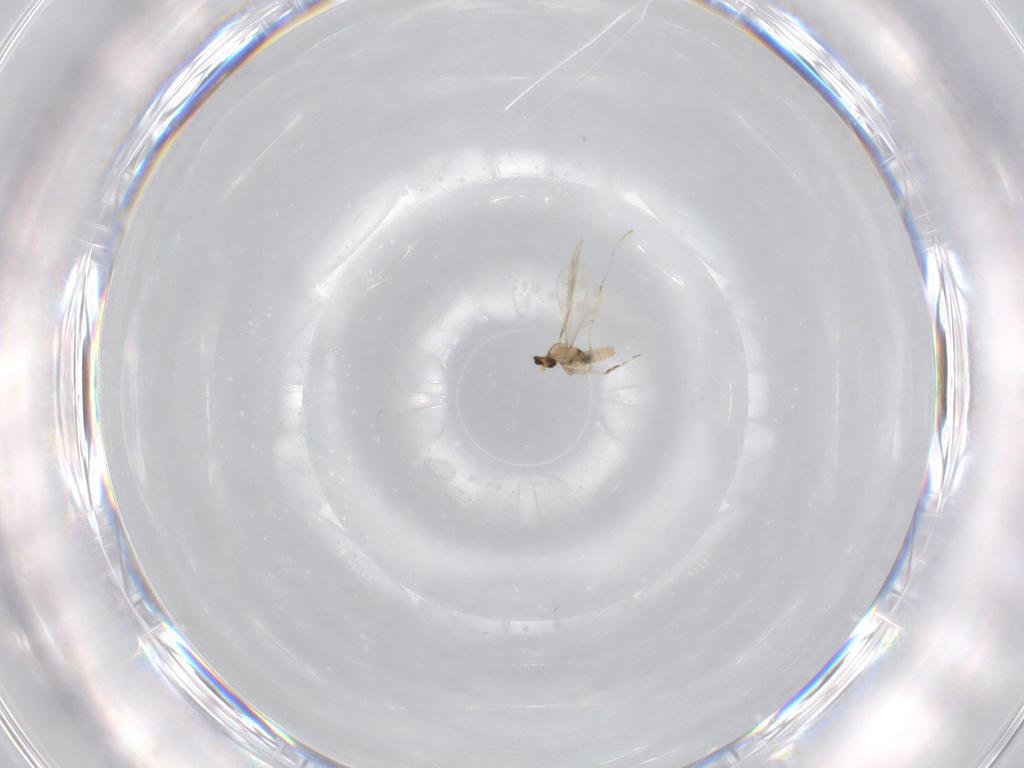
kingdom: Animalia
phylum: Arthropoda
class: Insecta
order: Diptera
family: Cecidomyiidae
